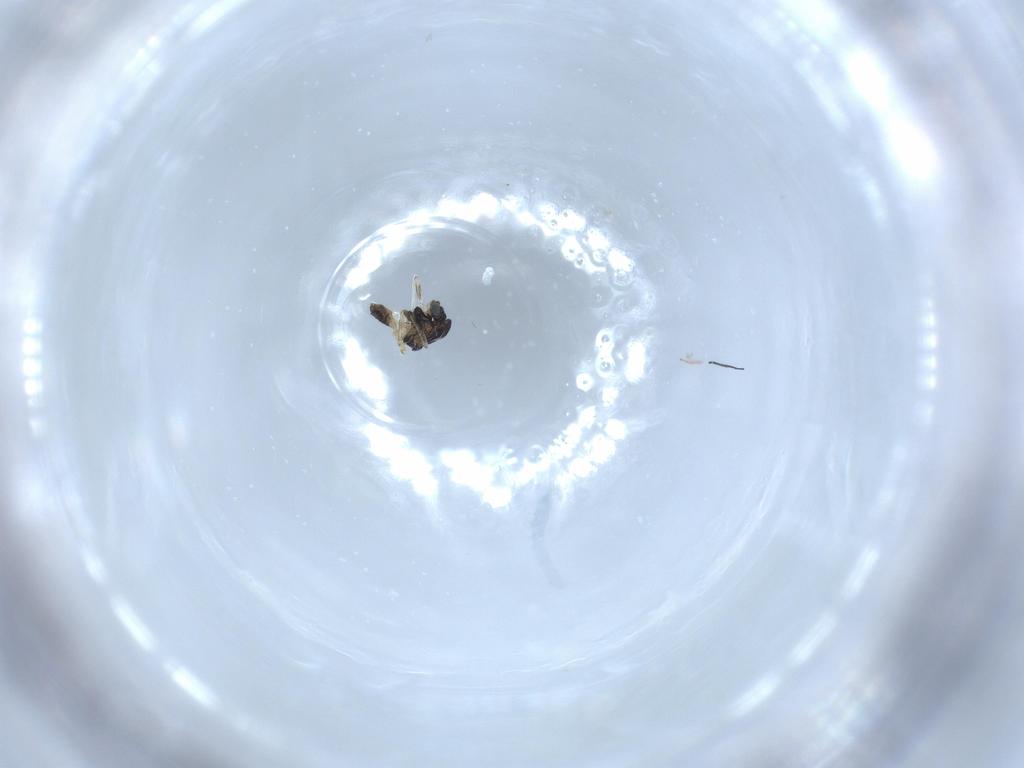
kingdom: Animalia
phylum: Arthropoda
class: Insecta
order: Diptera
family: Chironomidae
